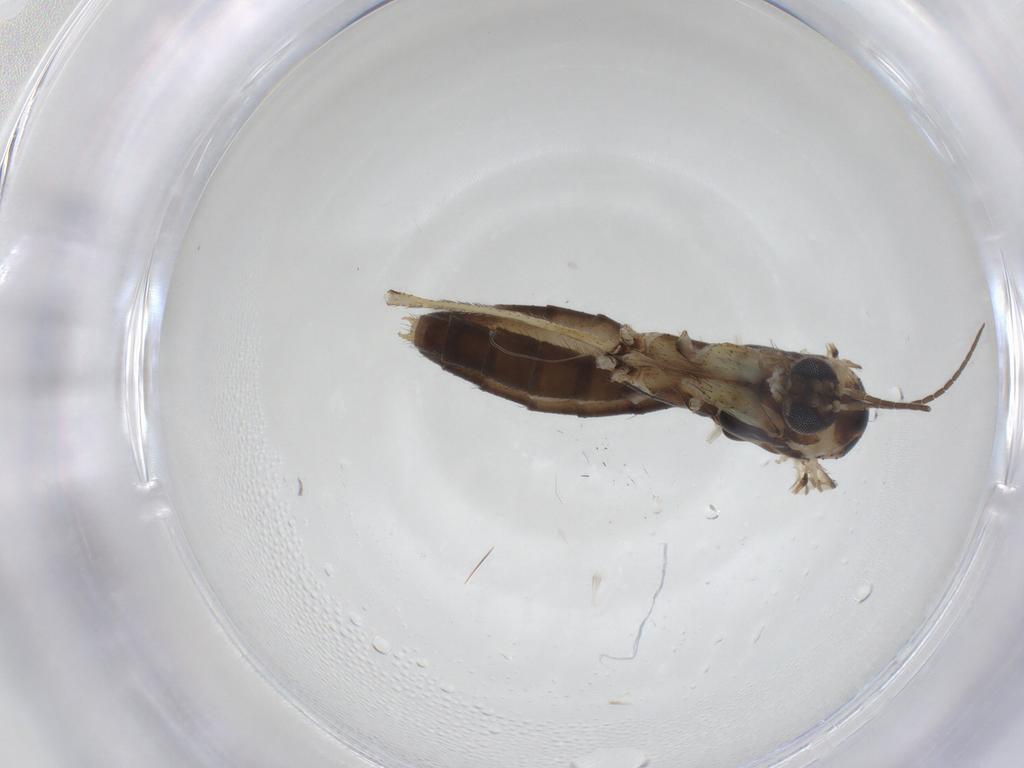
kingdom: Animalia
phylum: Arthropoda
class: Insecta
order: Diptera
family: Mycetophilidae
